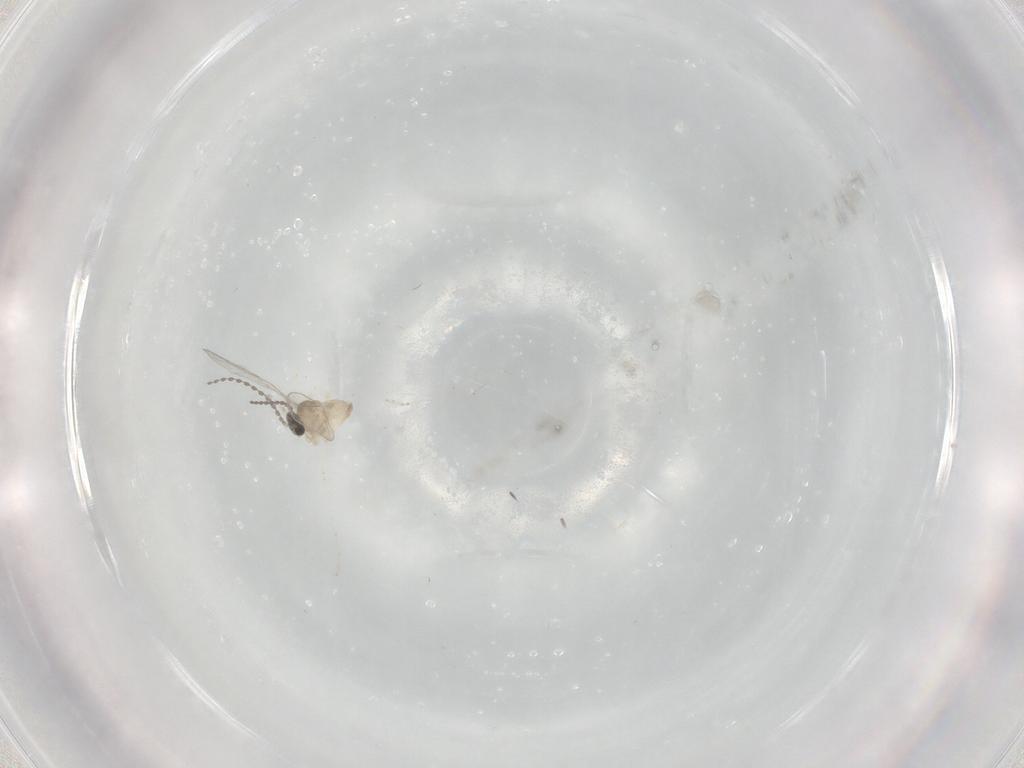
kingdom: Animalia
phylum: Arthropoda
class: Insecta
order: Diptera
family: Cecidomyiidae
